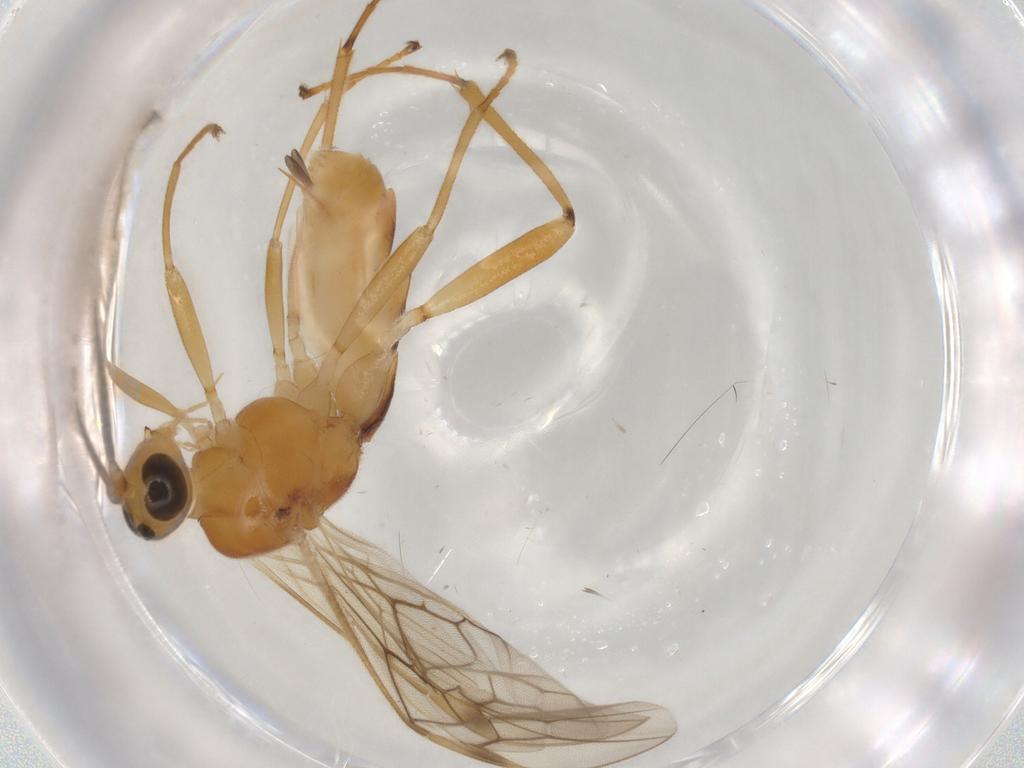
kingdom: Animalia
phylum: Arthropoda
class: Insecta
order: Hymenoptera
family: Braconidae
